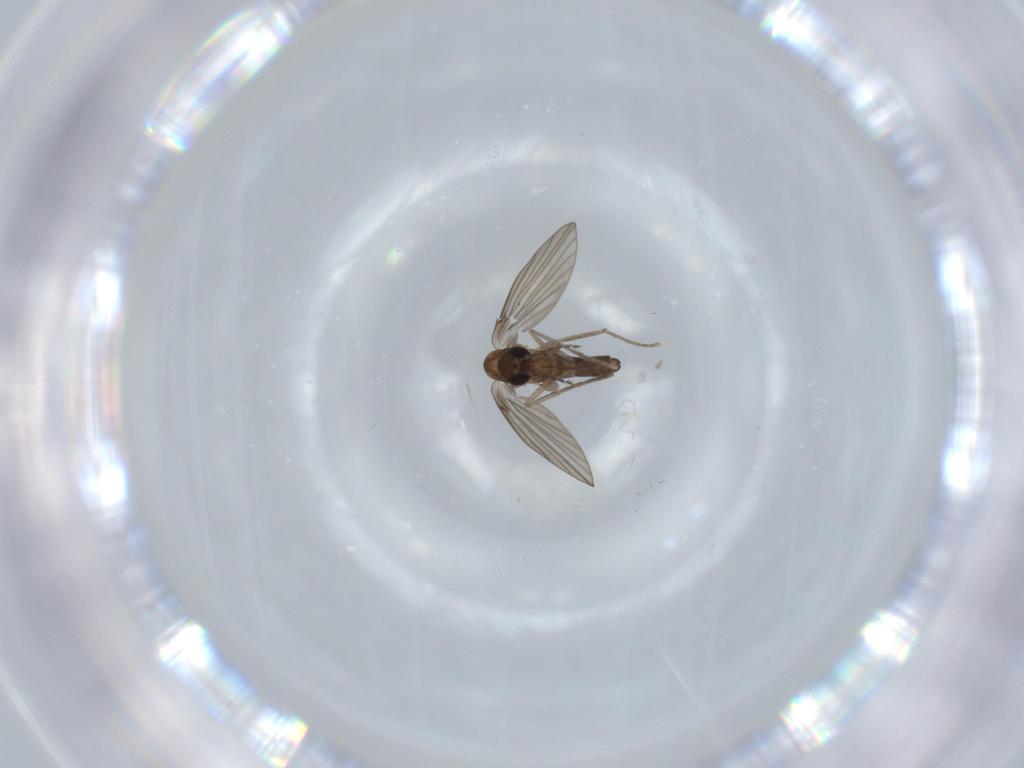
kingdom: Animalia
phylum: Arthropoda
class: Insecta
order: Diptera
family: Psychodidae
